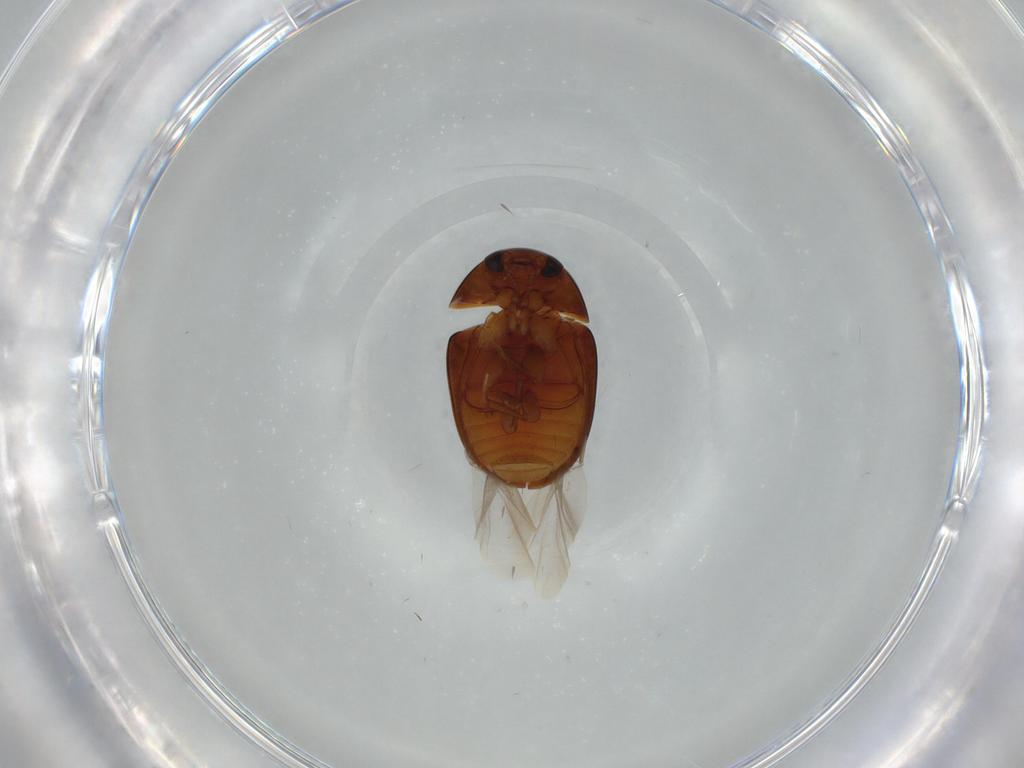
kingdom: Animalia
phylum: Arthropoda
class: Insecta
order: Coleoptera
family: Phalacridae
